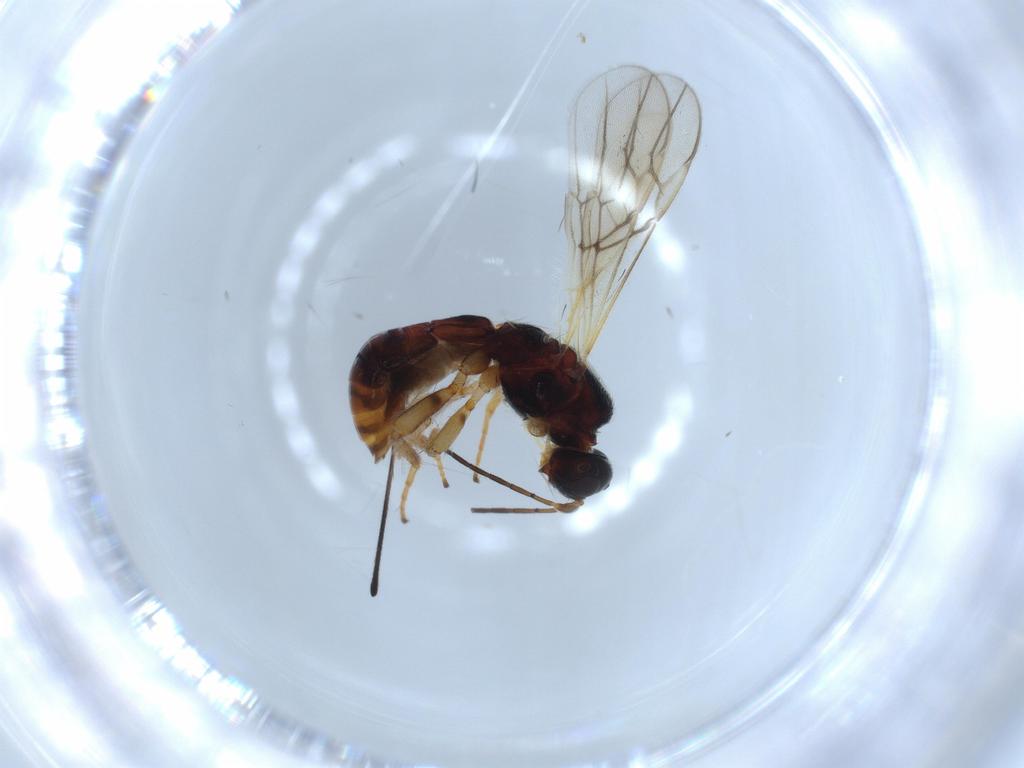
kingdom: Animalia
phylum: Arthropoda
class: Insecta
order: Hymenoptera
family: Braconidae
